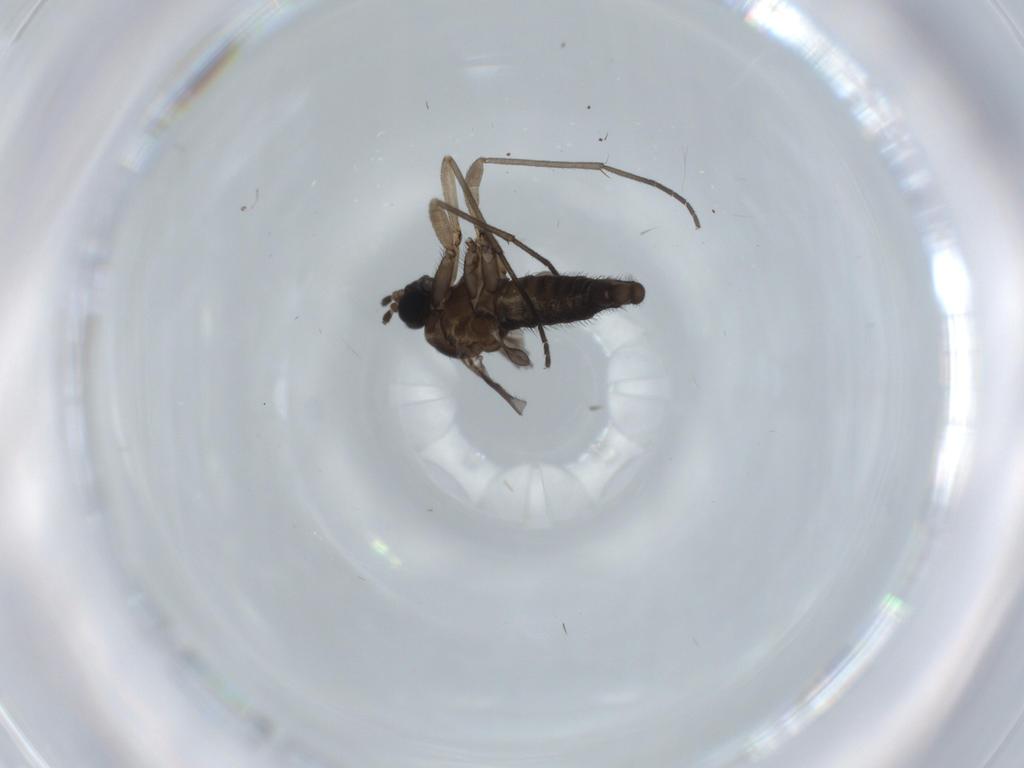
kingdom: Animalia
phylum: Arthropoda
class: Insecta
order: Diptera
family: Sciaridae
